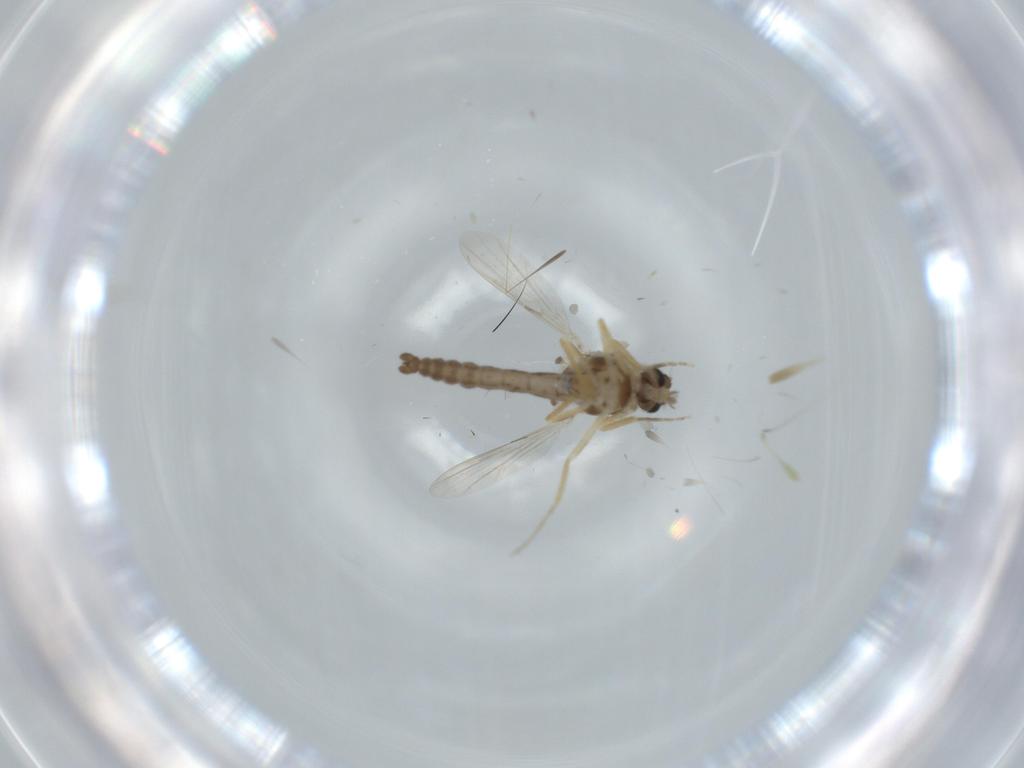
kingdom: Animalia
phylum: Arthropoda
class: Insecta
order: Diptera
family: Ceratopogonidae
